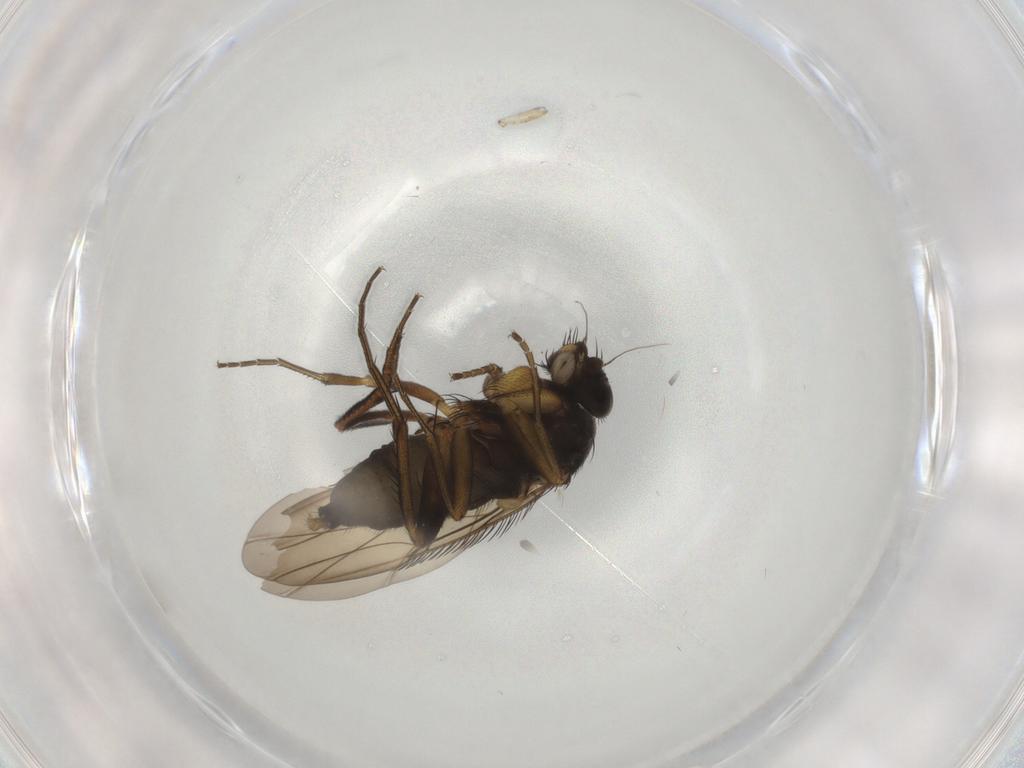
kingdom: Animalia
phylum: Arthropoda
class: Insecta
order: Diptera
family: Phoridae
